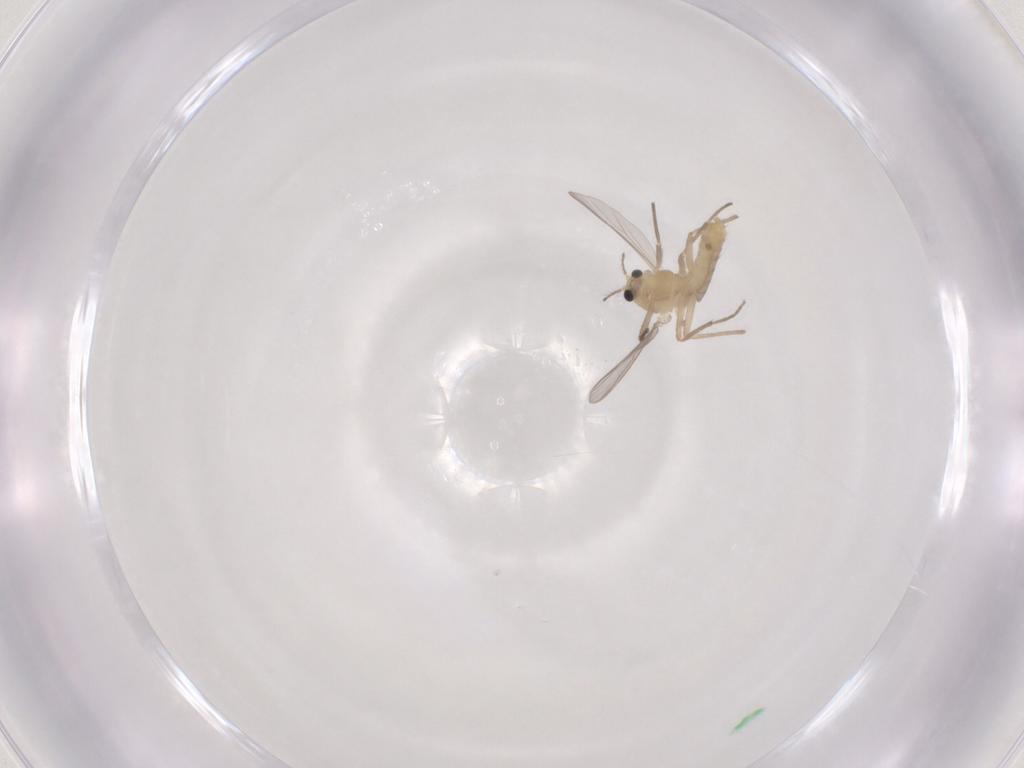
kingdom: Animalia
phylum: Arthropoda
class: Insecta
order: Diptera
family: Chironomidae
